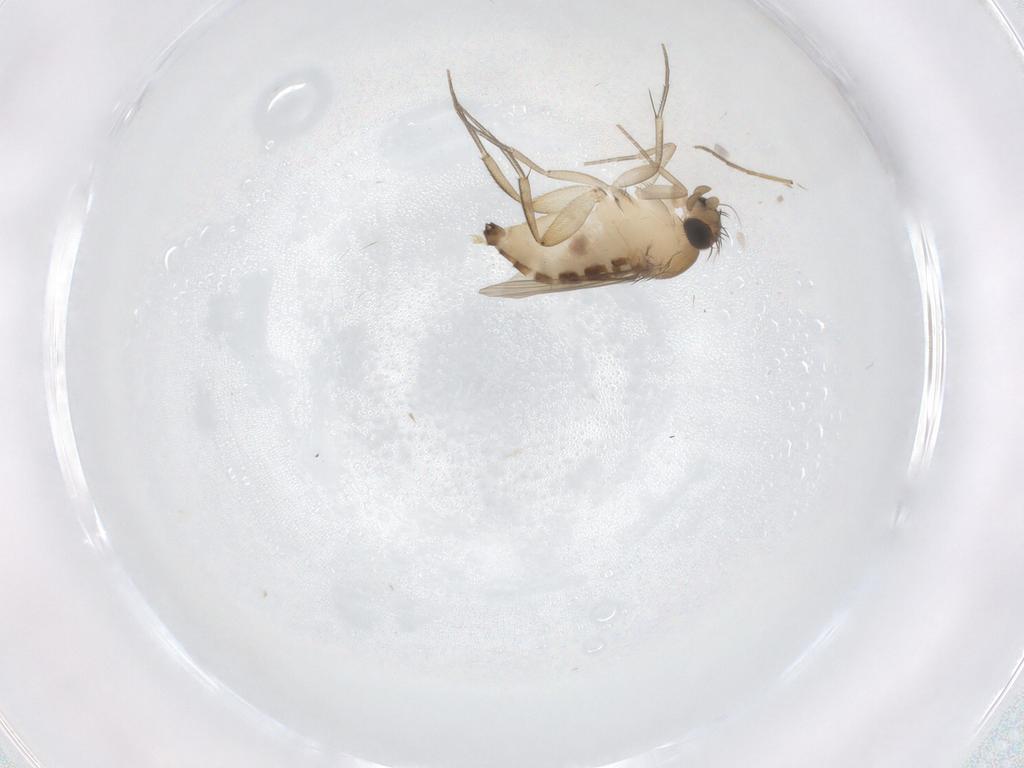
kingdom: Animalia
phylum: Arthropoda
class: Insecta
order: Diptera
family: Phoridae
